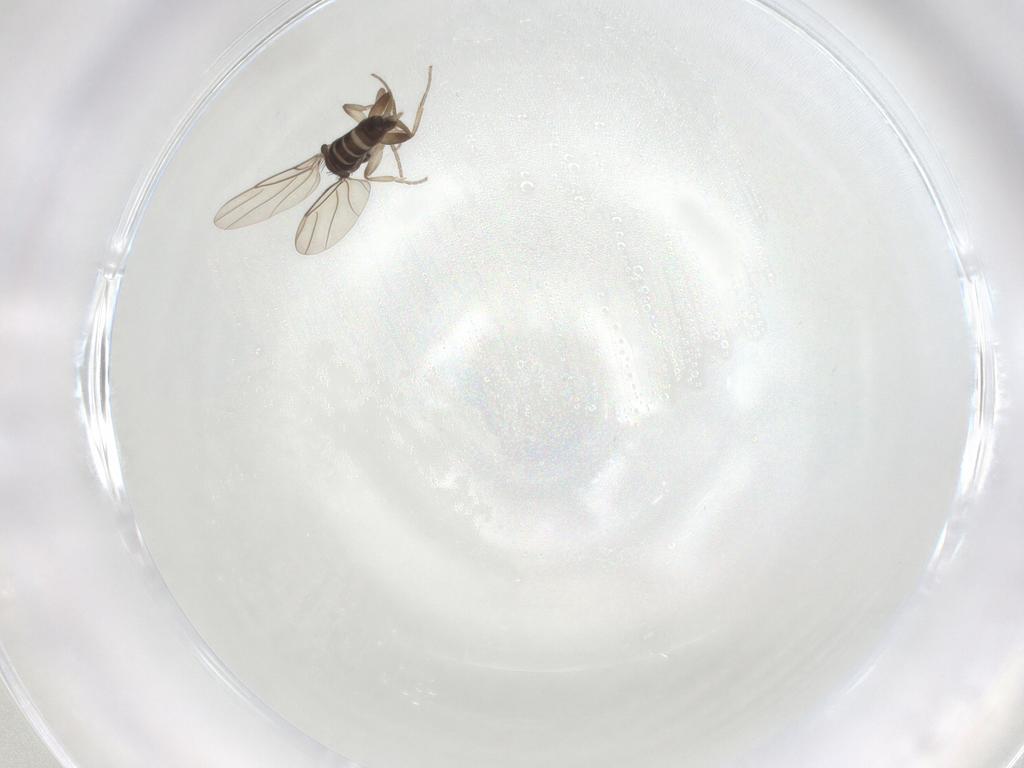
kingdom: Animalia
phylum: Arthropoda
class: Insecta
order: Diptera
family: Phoridae
